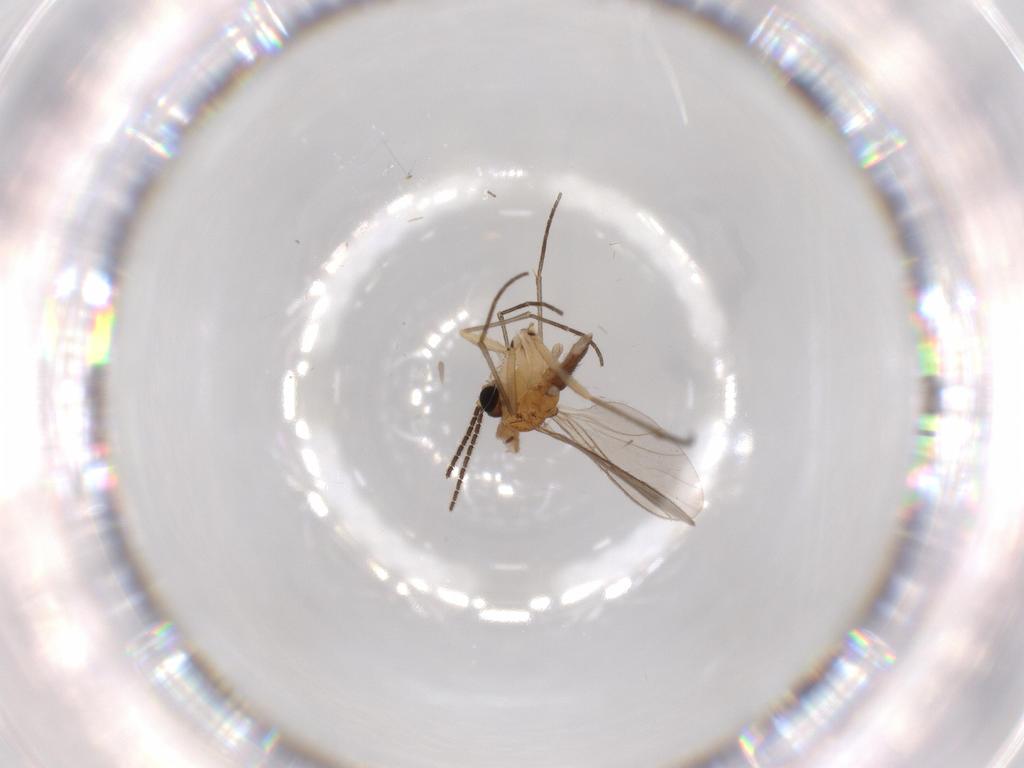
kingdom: Animalia
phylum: Arthropoda
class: Insecta
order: Diptera
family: Sciaridae
